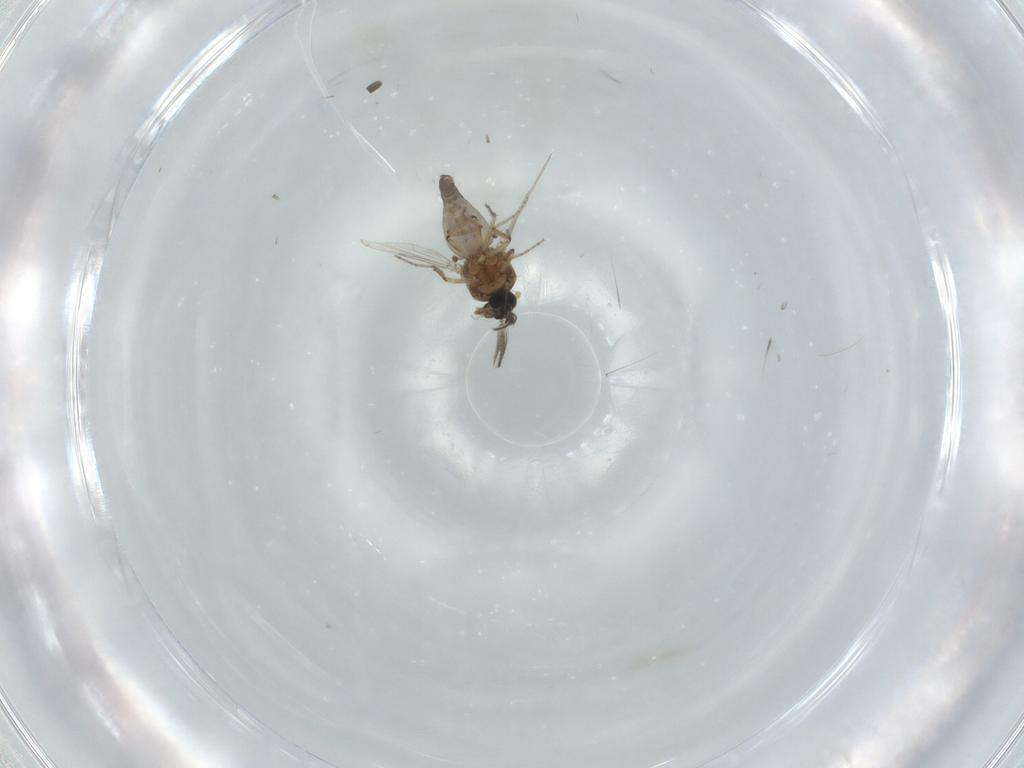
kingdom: Animalia
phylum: Arthropoda
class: Insecta
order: Diptera
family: Ceratopogonidae
